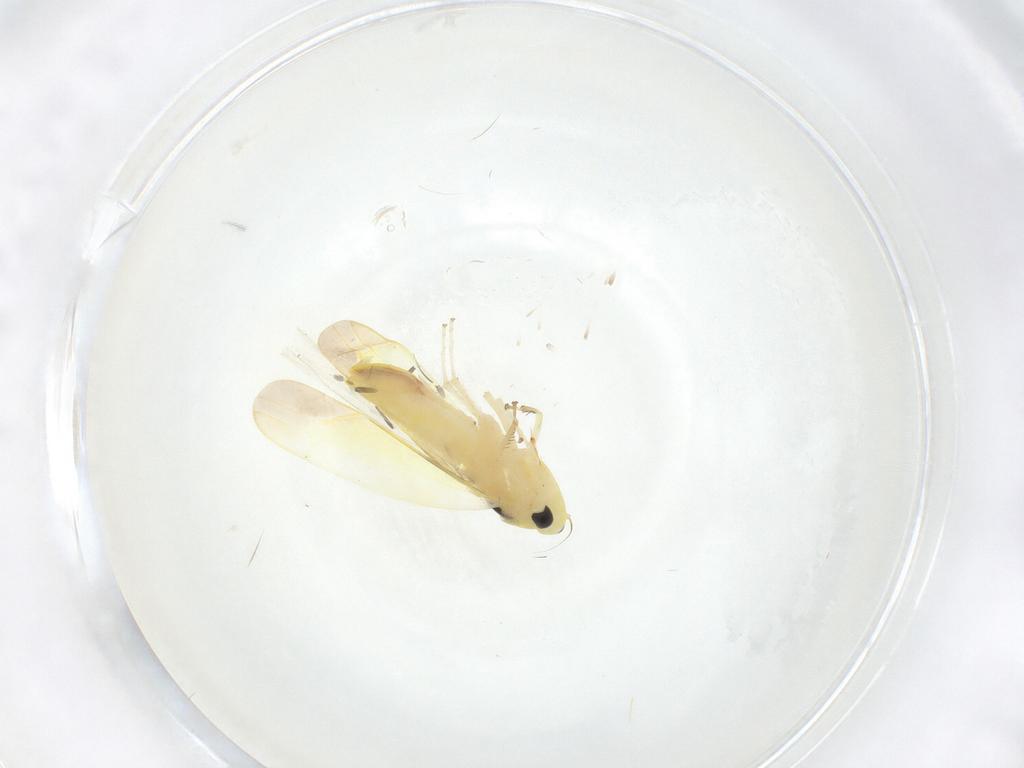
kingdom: Animalia
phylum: Arthropoda
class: Insecta
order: Hemiptera
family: Cicadellidae
